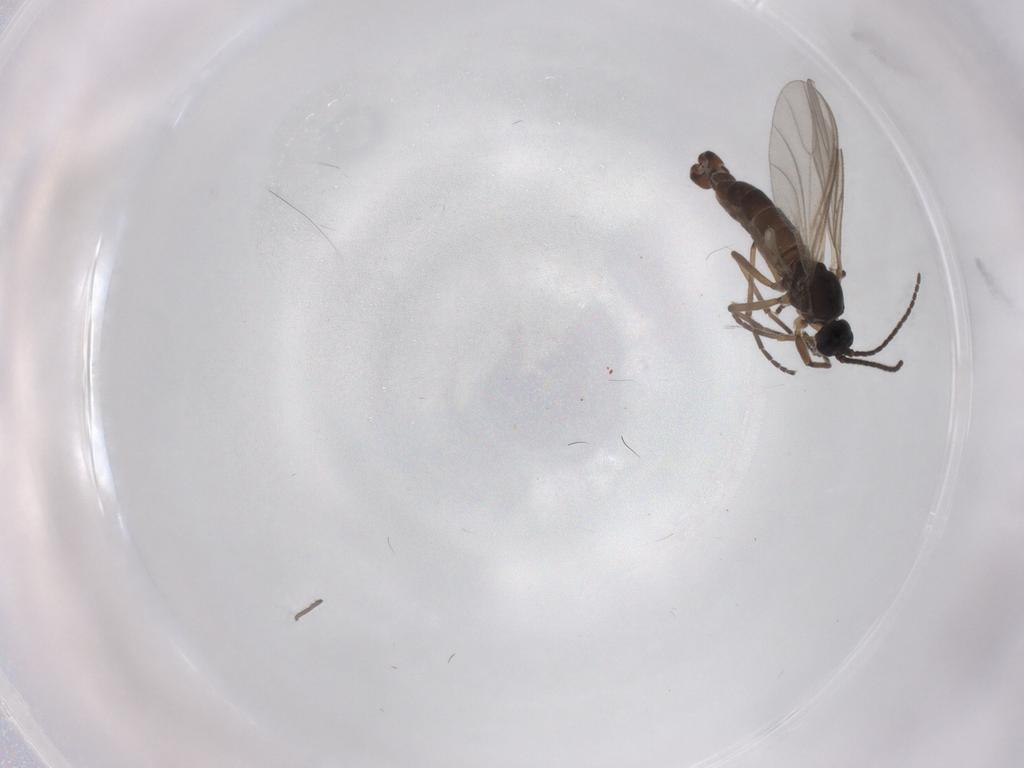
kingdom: Animalia
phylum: Arthropoda
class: Insecta
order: Diptera
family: Sciaridae
